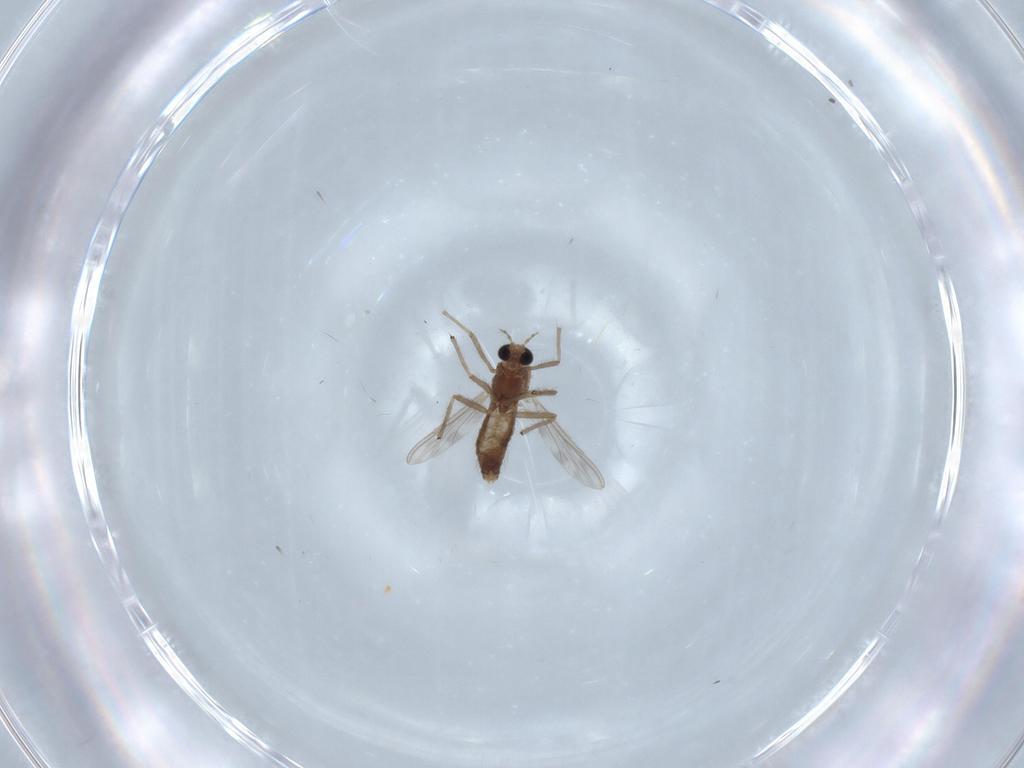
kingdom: Animalia
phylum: Arthropoda
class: Insecta
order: Diptera
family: Chironomidae
